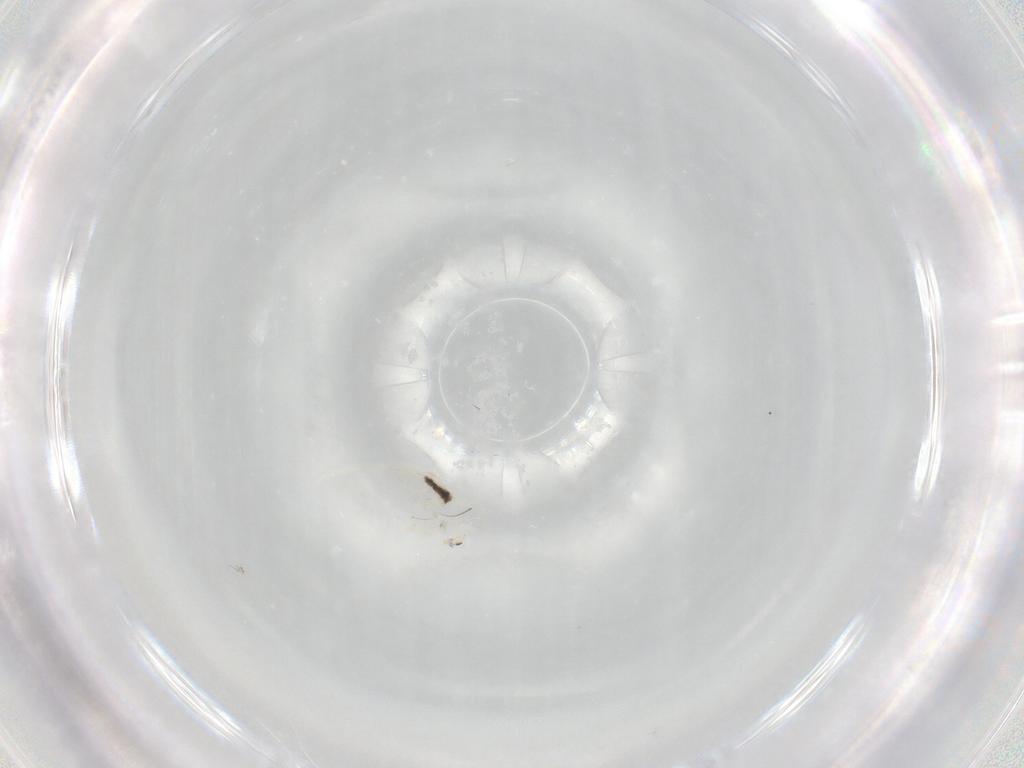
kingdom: Animalia
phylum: Arthropoda
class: Collembola
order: Entomobryomorpha
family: Entomobryidae
